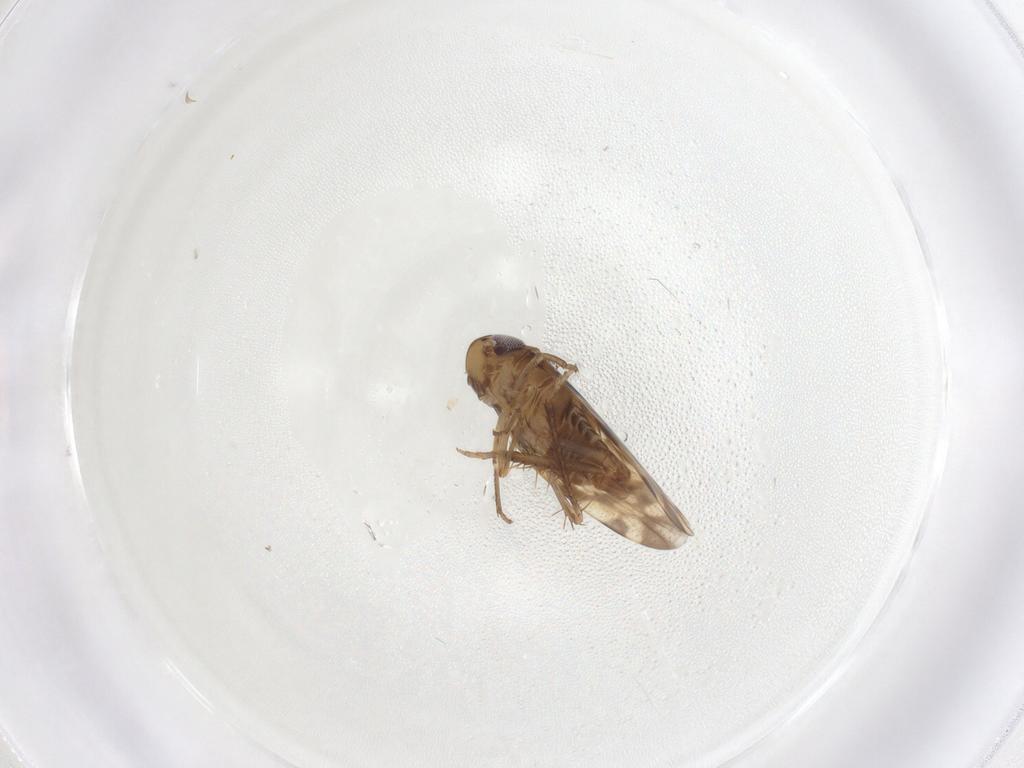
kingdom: Animalia
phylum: Arthropoda
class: Insecta
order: Hemiptera
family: Cicadellidae
